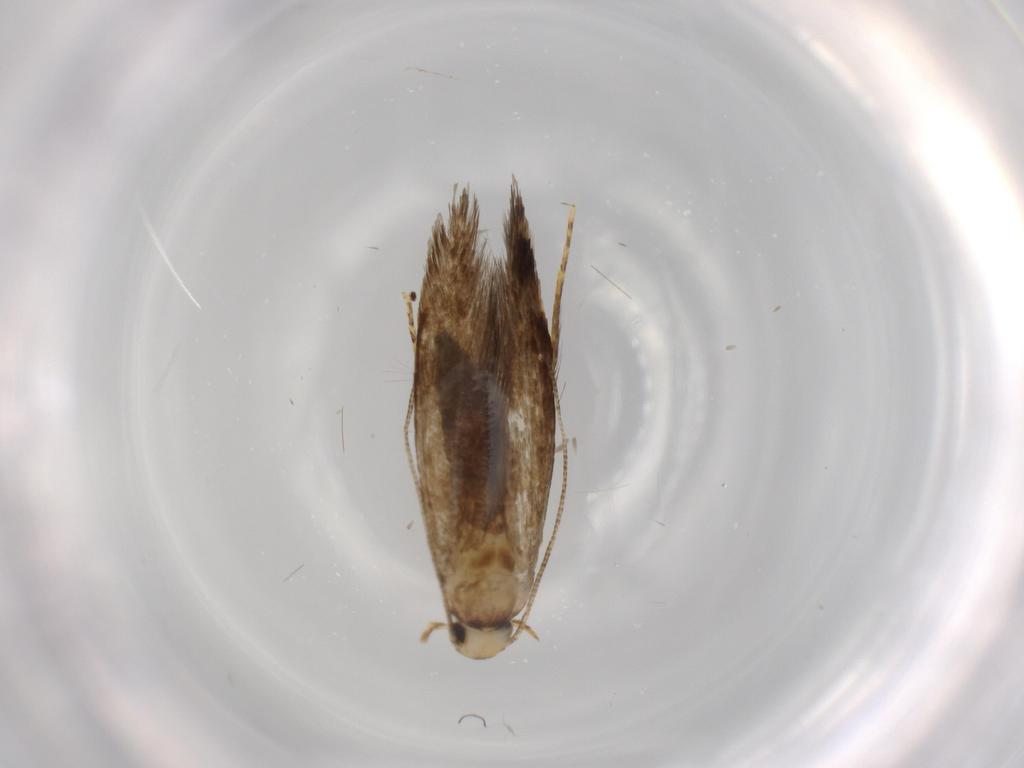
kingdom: Animalia
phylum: Arthropoda
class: Insecta
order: Lepidoptera
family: Tineidae
